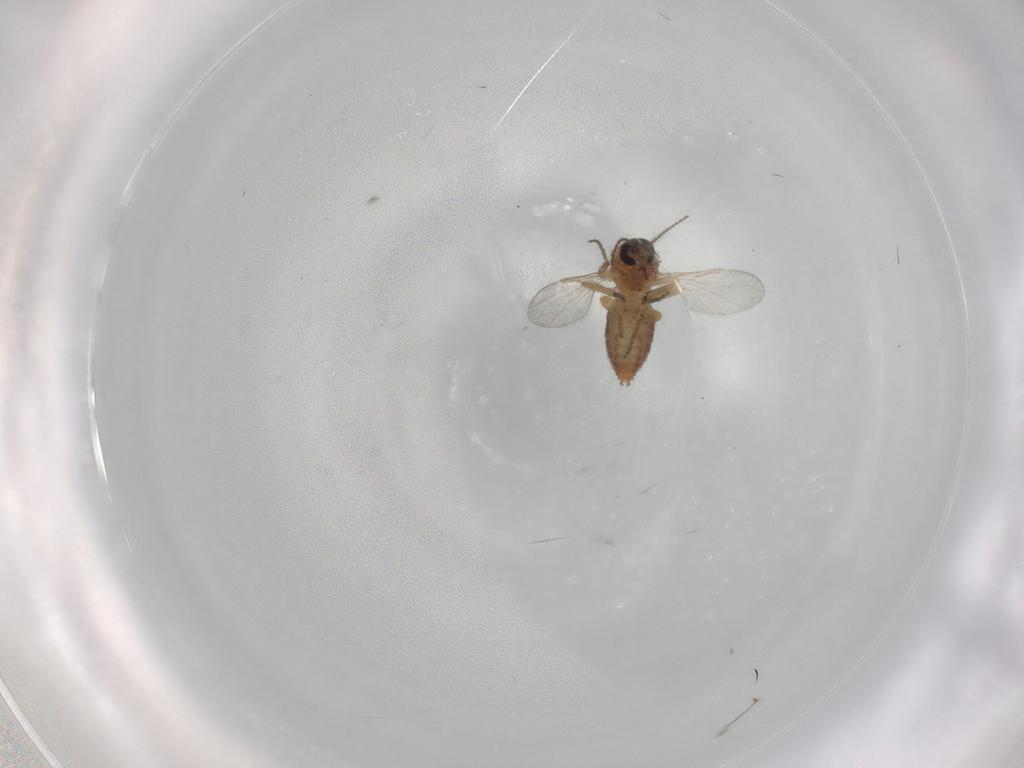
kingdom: Animalia
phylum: Arthropoda
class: Insecta
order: Diptera
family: Ceratopogonidae
